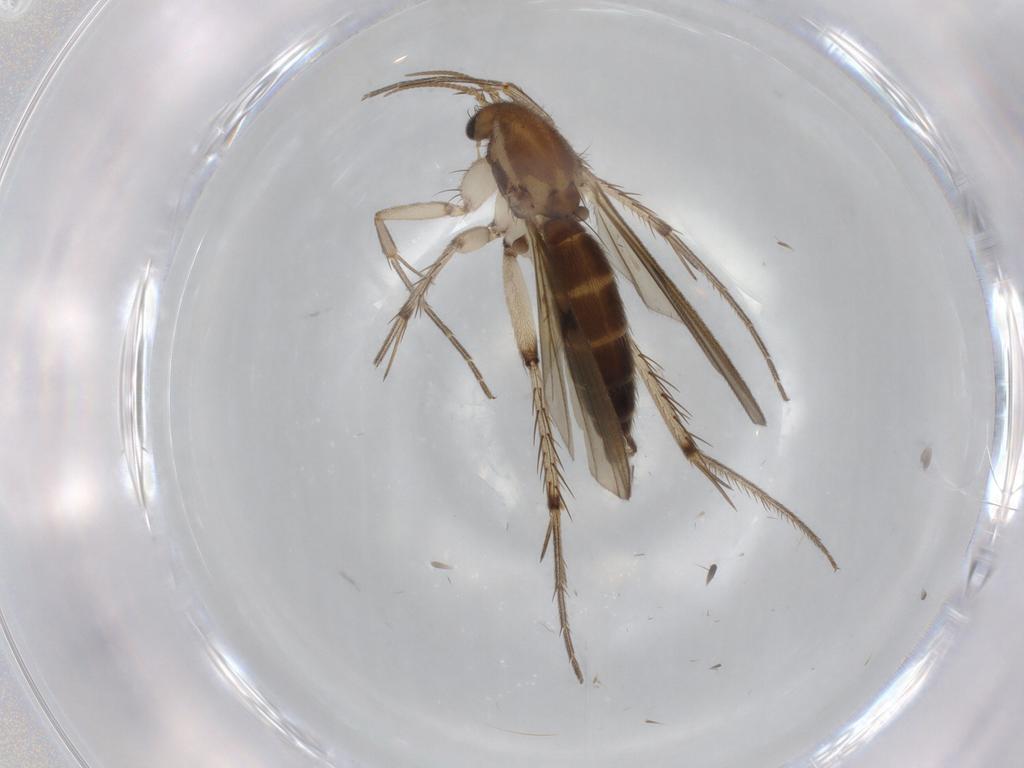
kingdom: Animalia
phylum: Arthropoda
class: Insecta
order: Diptera
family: Mycetophilidae
